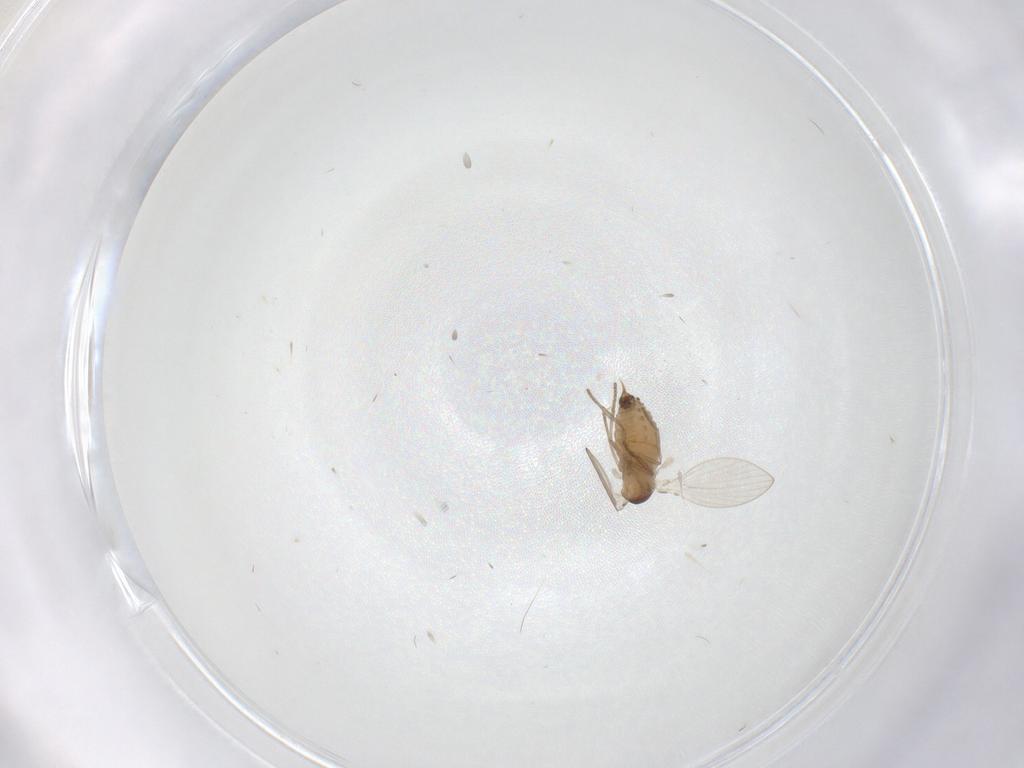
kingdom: Animalia
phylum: Arthropoda
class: Insecta
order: Diptera
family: Psychodidae
